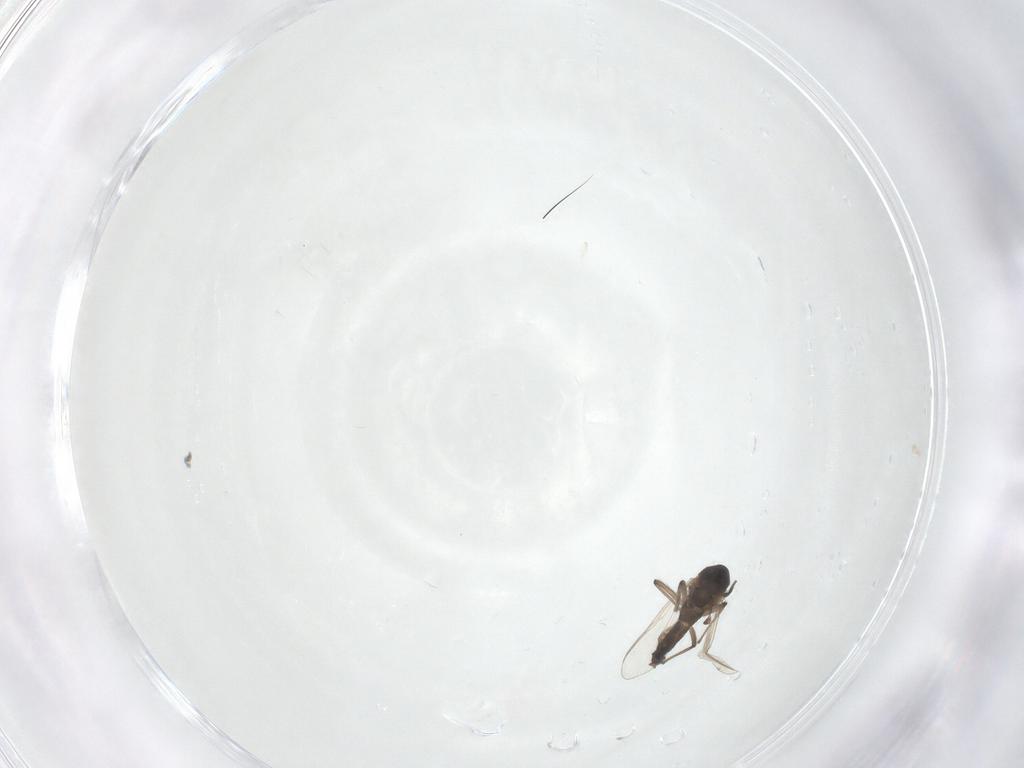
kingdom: Animalia
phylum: Arthropoda
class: Insecta
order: Diptera
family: Chironomidae
